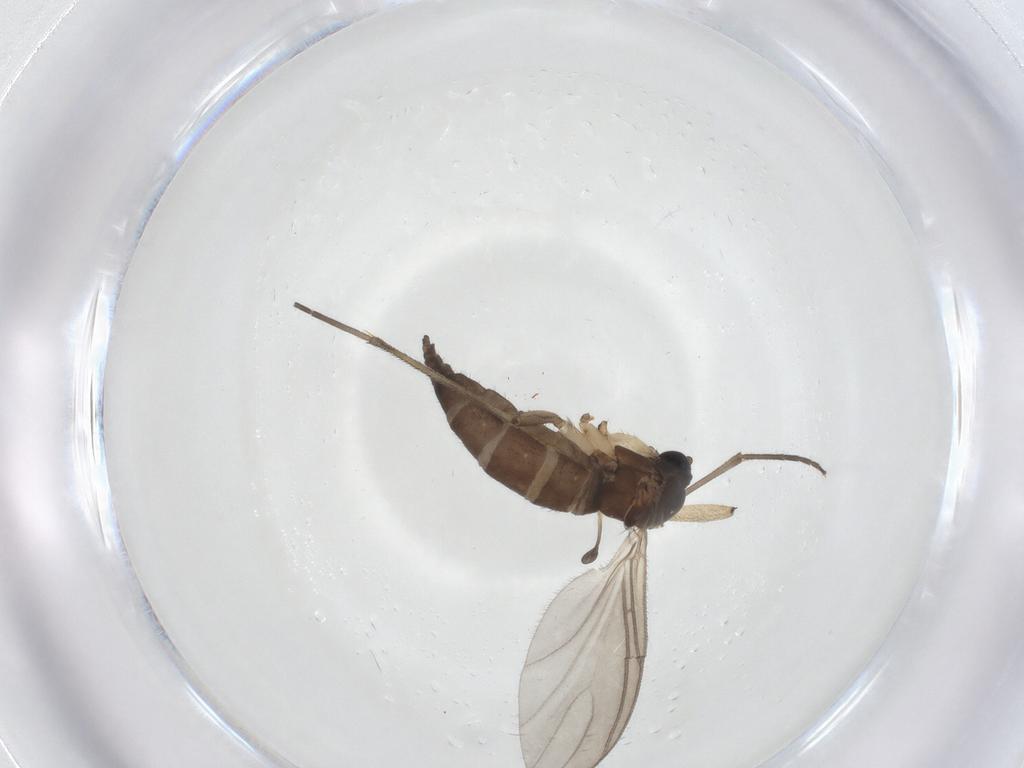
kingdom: Animalia
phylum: Arthropoda
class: Insecta
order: Diptera
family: Sciaridae
